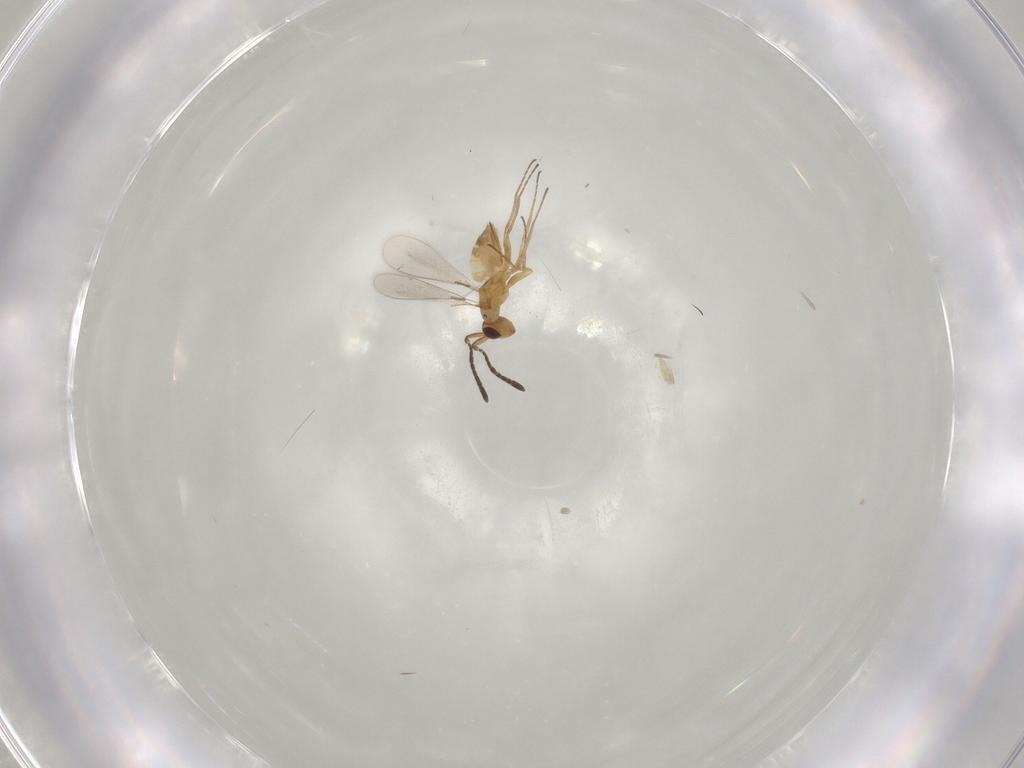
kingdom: Animalia
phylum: Arthropoda
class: Insecta
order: Hymenoptera
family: Mymaridae
